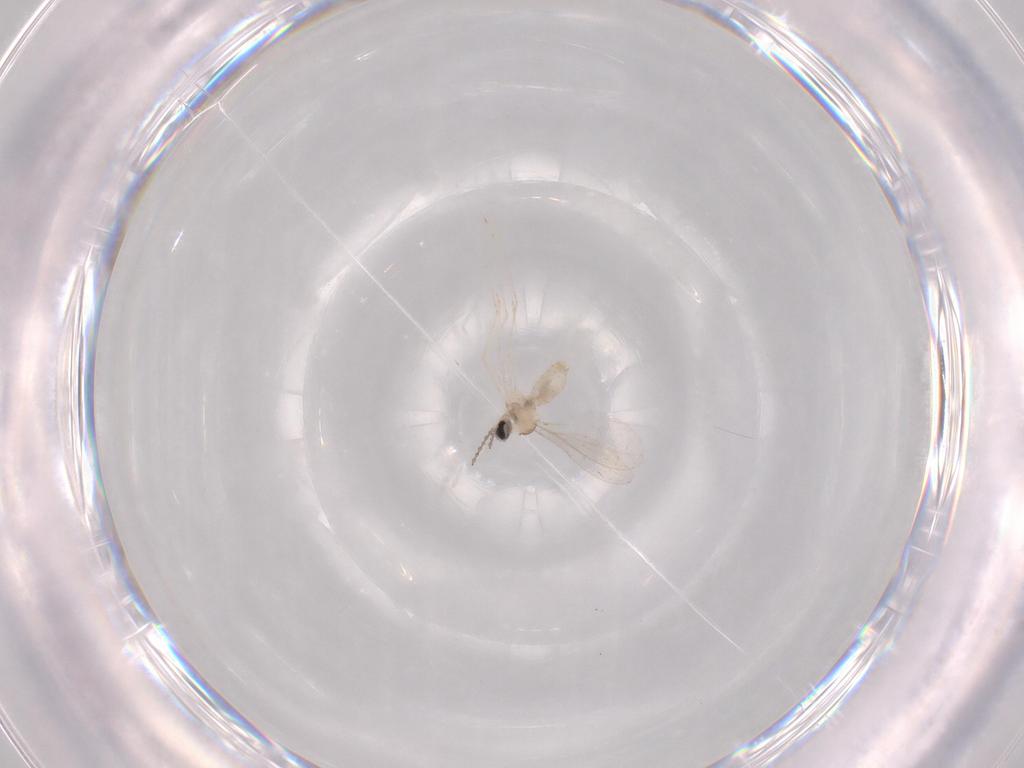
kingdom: Animalia
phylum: Arthropoda
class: Insecta
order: Diptera
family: Cecidomyiidae
